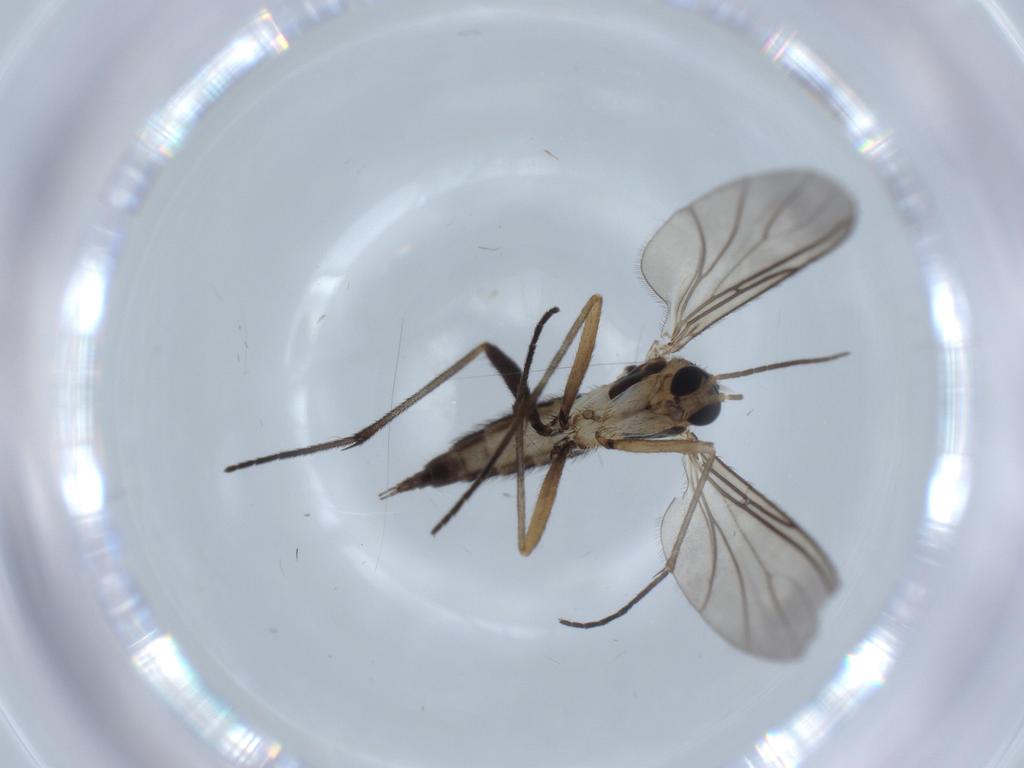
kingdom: Animalia
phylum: Arthropoda
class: Insecta
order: Diptera
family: Sciaridae
